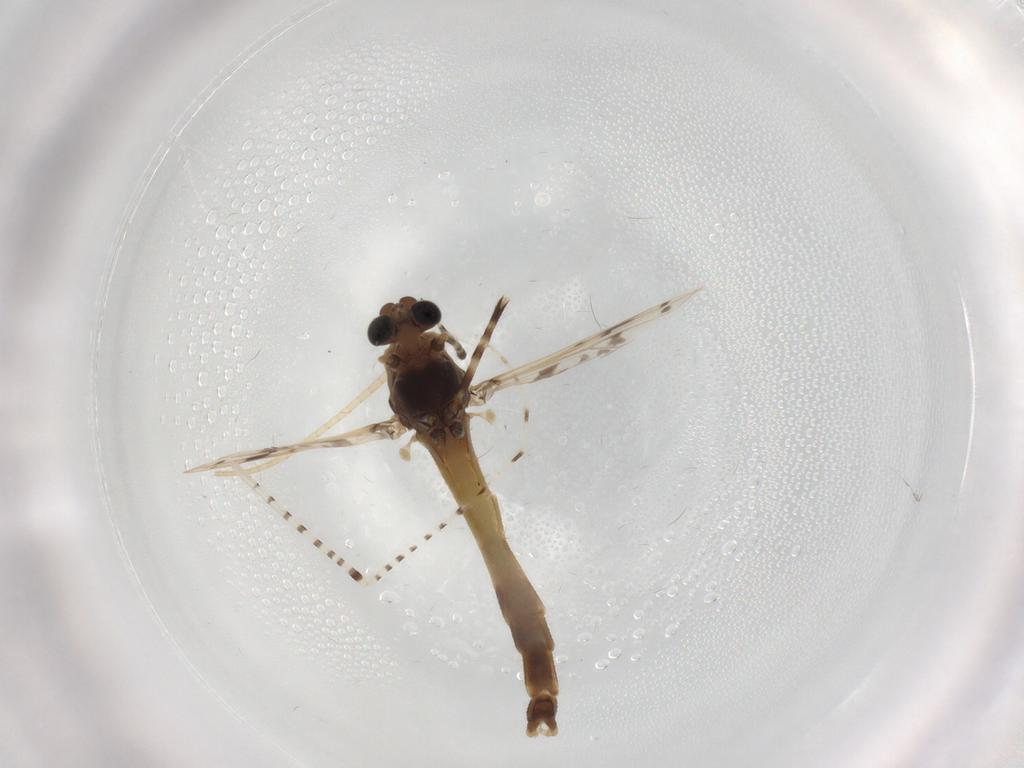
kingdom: Animalia
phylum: Arthropoda
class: Insecta
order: Diptera
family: Chironomidae
